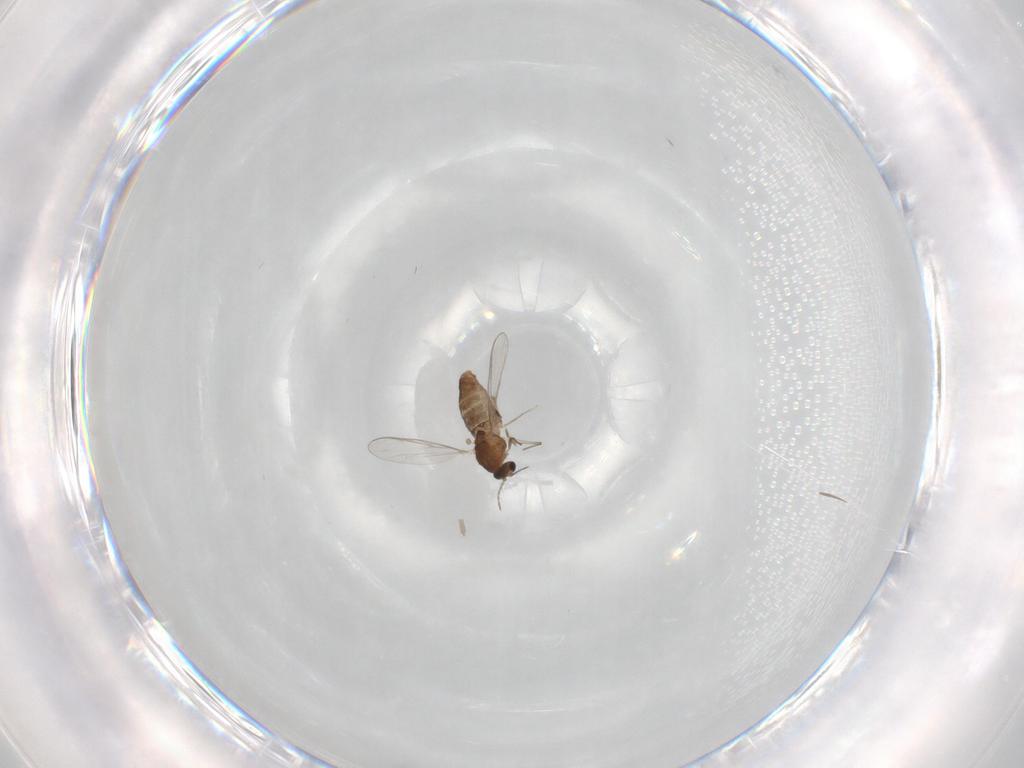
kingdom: Animalia
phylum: Arthropoda
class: Insecta
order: Diptera
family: Chironomidae
